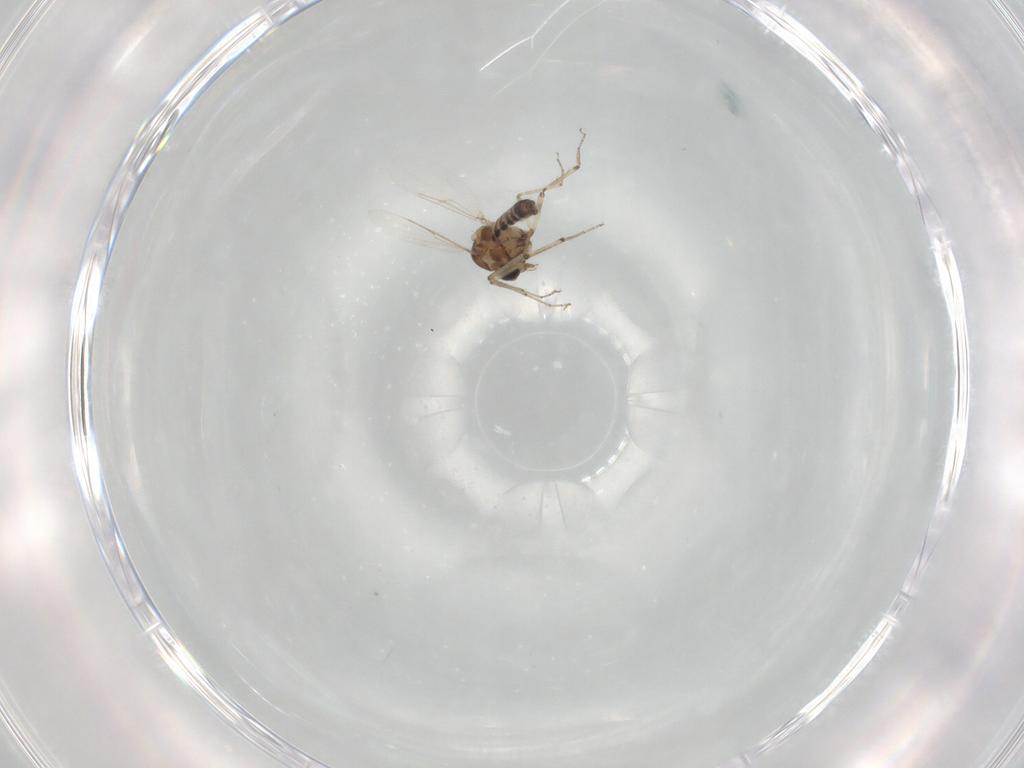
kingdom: Animalia
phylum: Arthropoda
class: Insecta
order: Diptera
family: Ceratopogonidae
